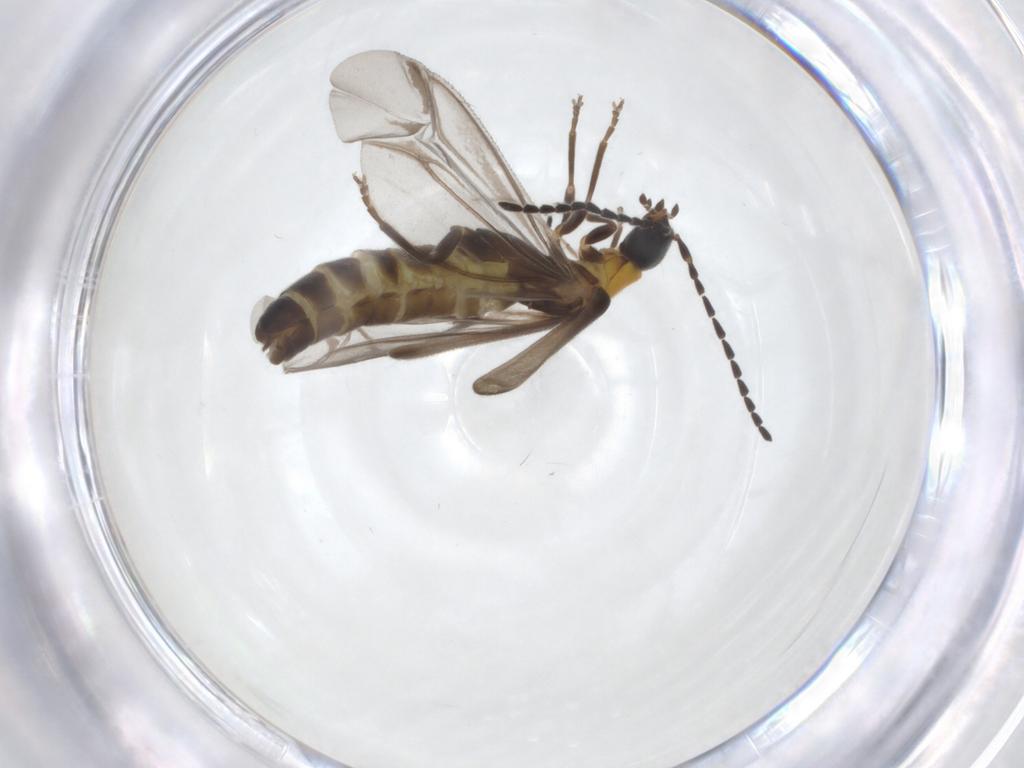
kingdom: Animalia
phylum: Arthropoda
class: Insecta
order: Coleoptera
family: Cantharidae
